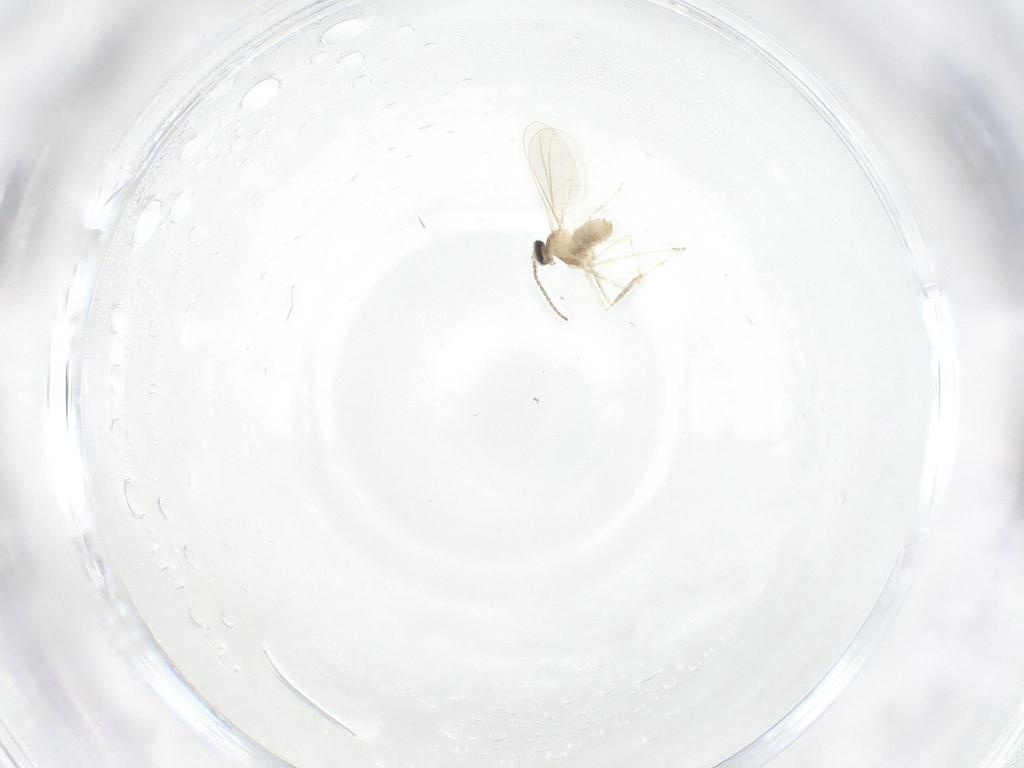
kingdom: Animalia
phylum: Arthropoda
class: Insecta
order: Diptera
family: Cecidomyiidae
